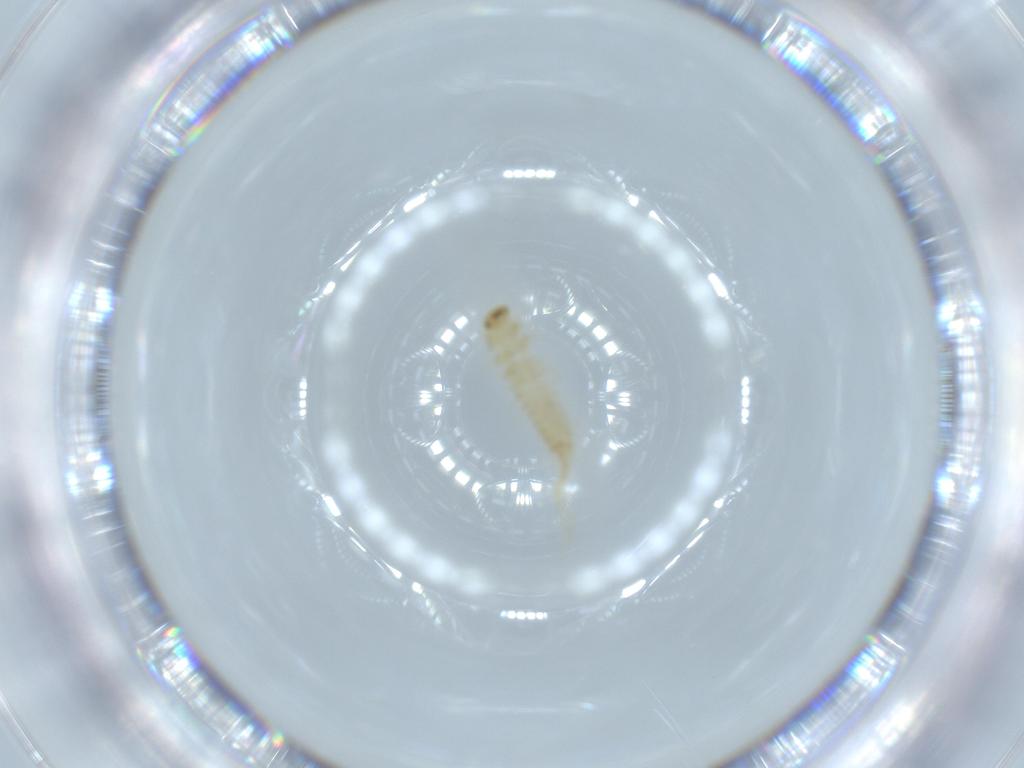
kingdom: Animalia
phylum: Arthropoda
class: Insecta
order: Coleoptera
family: Dermestidae
